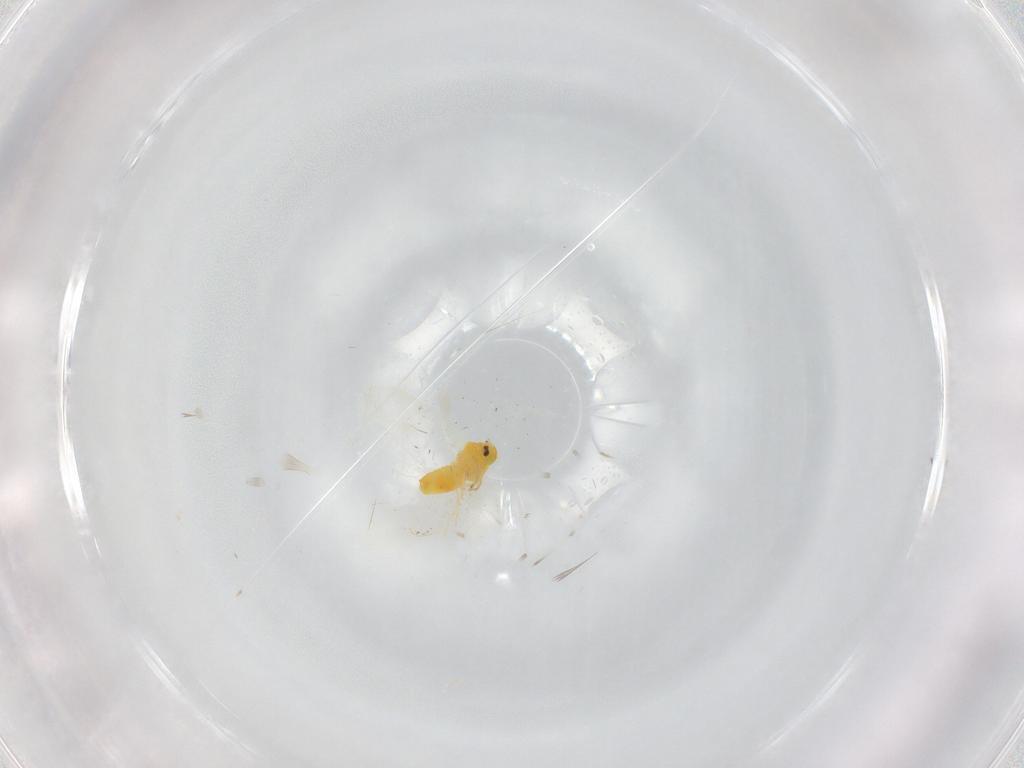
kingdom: Animalia
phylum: Arthropoda
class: Insecta
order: Hemiptera
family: Aleyrodidae
